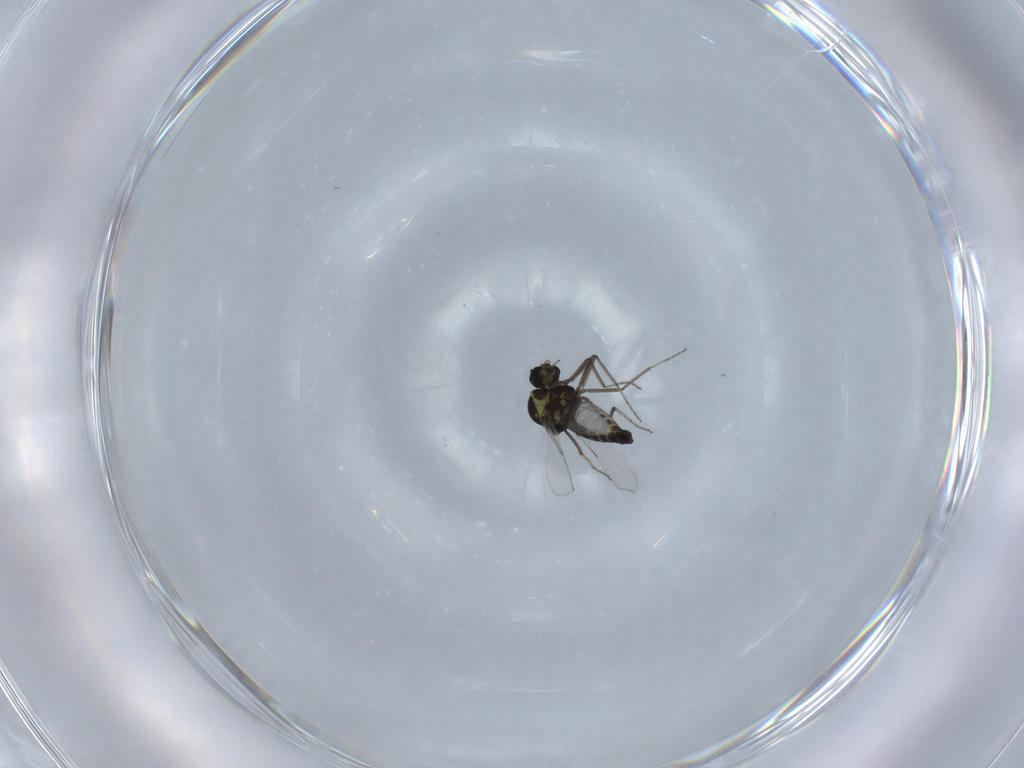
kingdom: Animalia
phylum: Arthropoda
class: Insecta
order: Diptera
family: Ceratopogonidae
